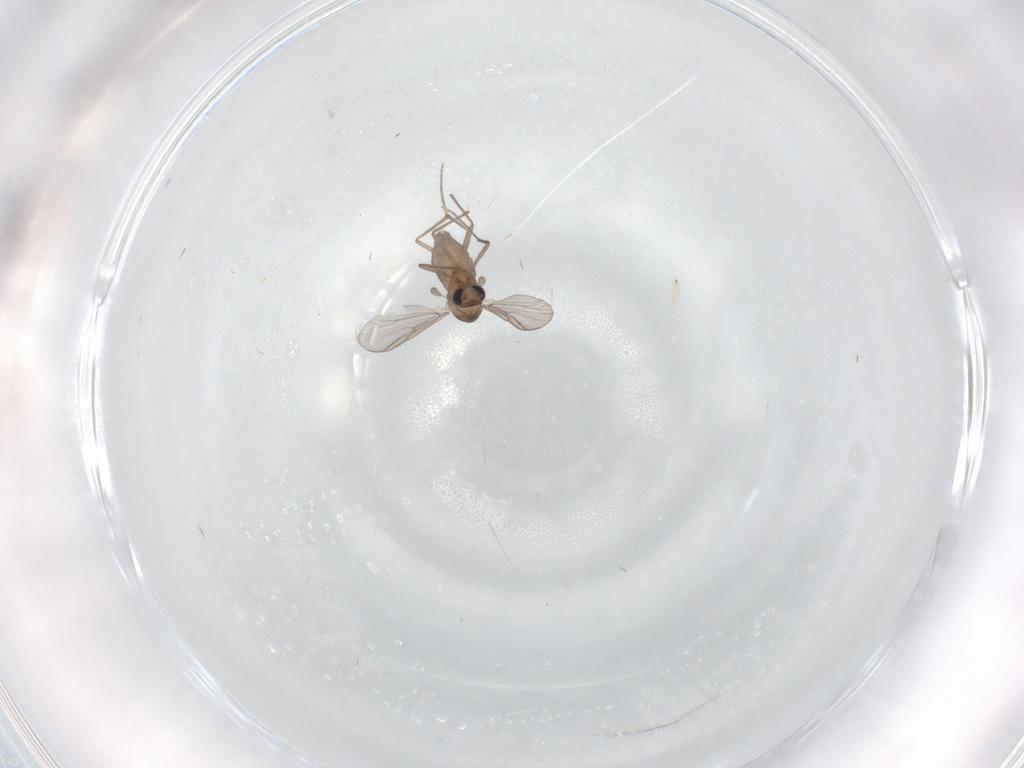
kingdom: Animalia
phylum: Arthropoda
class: Insecta
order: Diptera
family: Chironomidae
